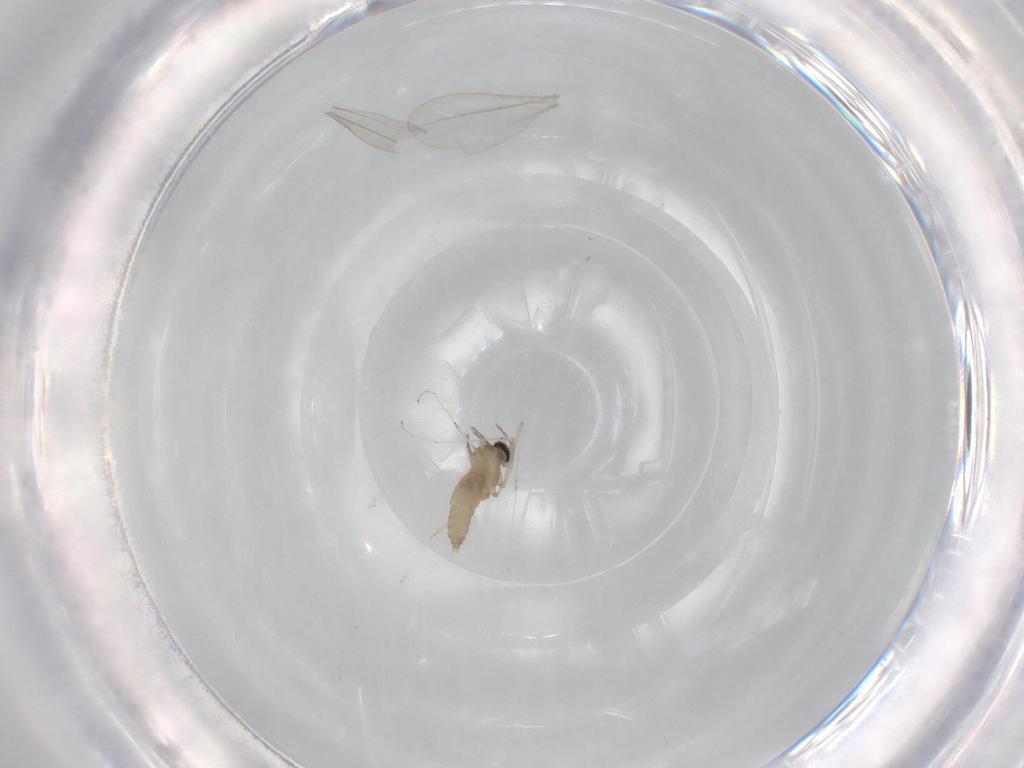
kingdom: Animalia
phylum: Arthropoda
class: Insecta
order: Diptera
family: Cecidomyiidae
